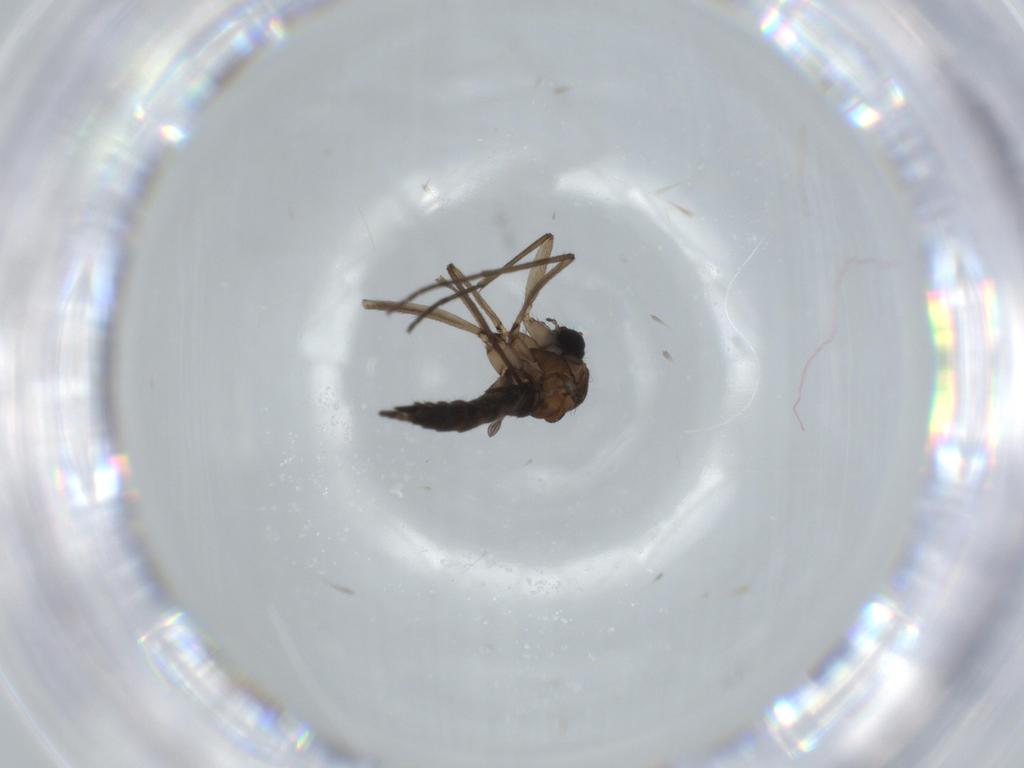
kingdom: Animalia
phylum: Arthropoda
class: Insecta
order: Diptera
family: Sciaridae
